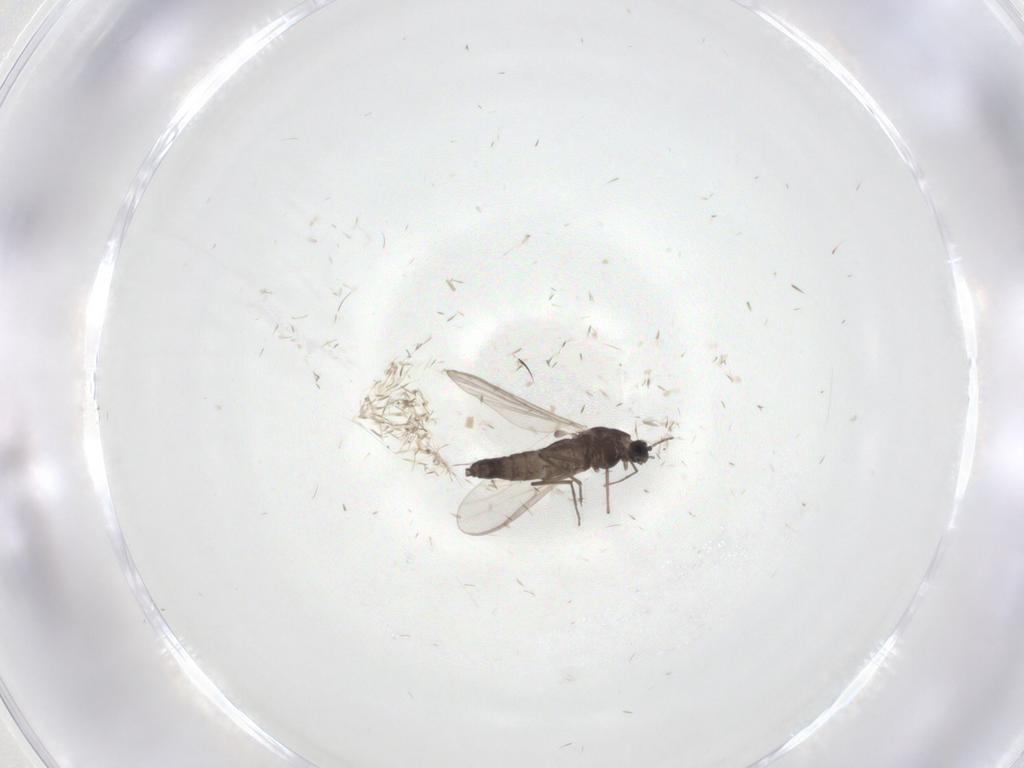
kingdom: Animalia
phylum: Arthropoda
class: Insecta
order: Diptera
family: Sciaridae
